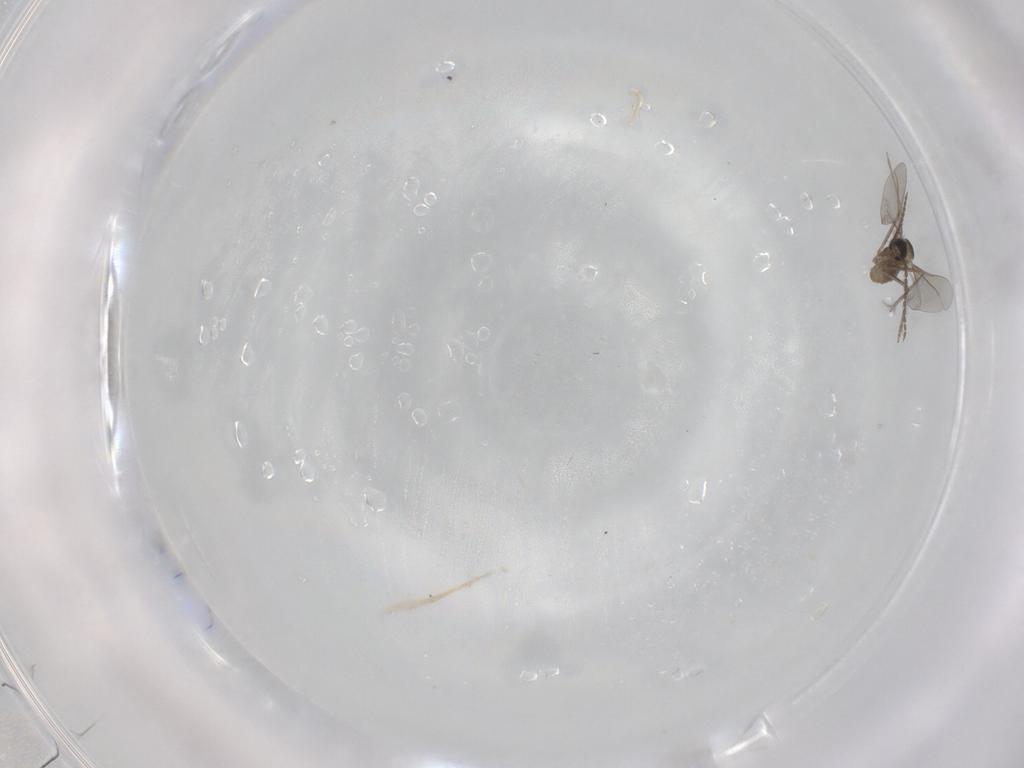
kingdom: Animalia
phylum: Arthropoda
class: Insecta
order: Diptera
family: Cecidomyiidae
